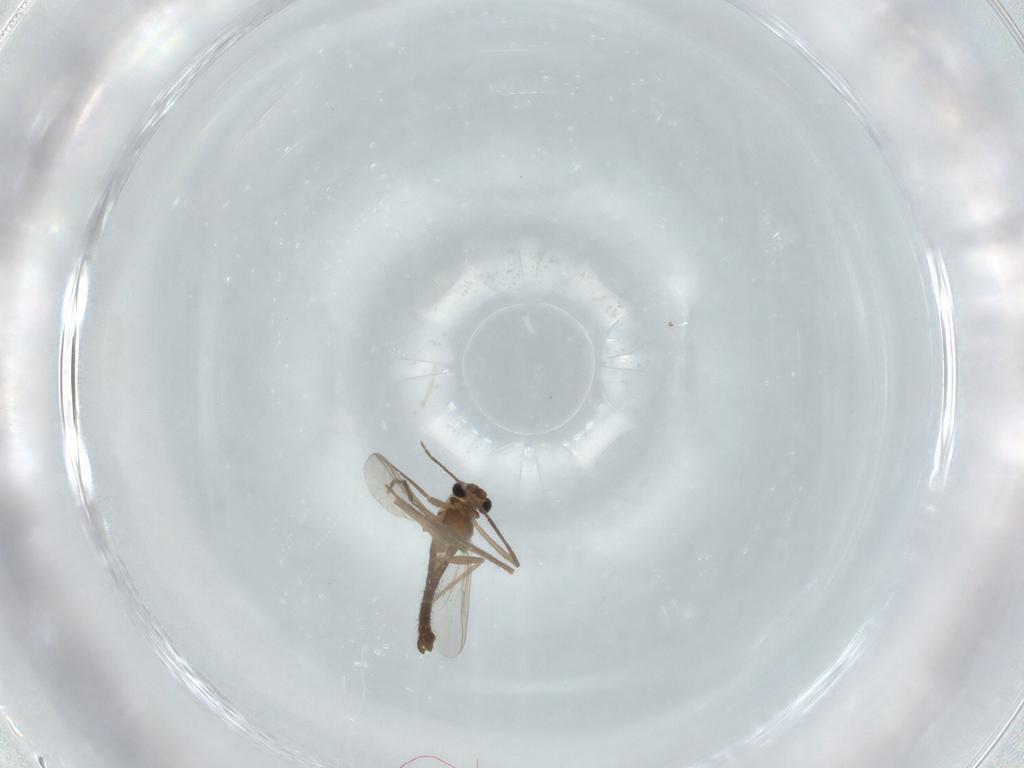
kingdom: Animalia
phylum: Arthropoda
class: Insecta
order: Diptera
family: Chironomidae
